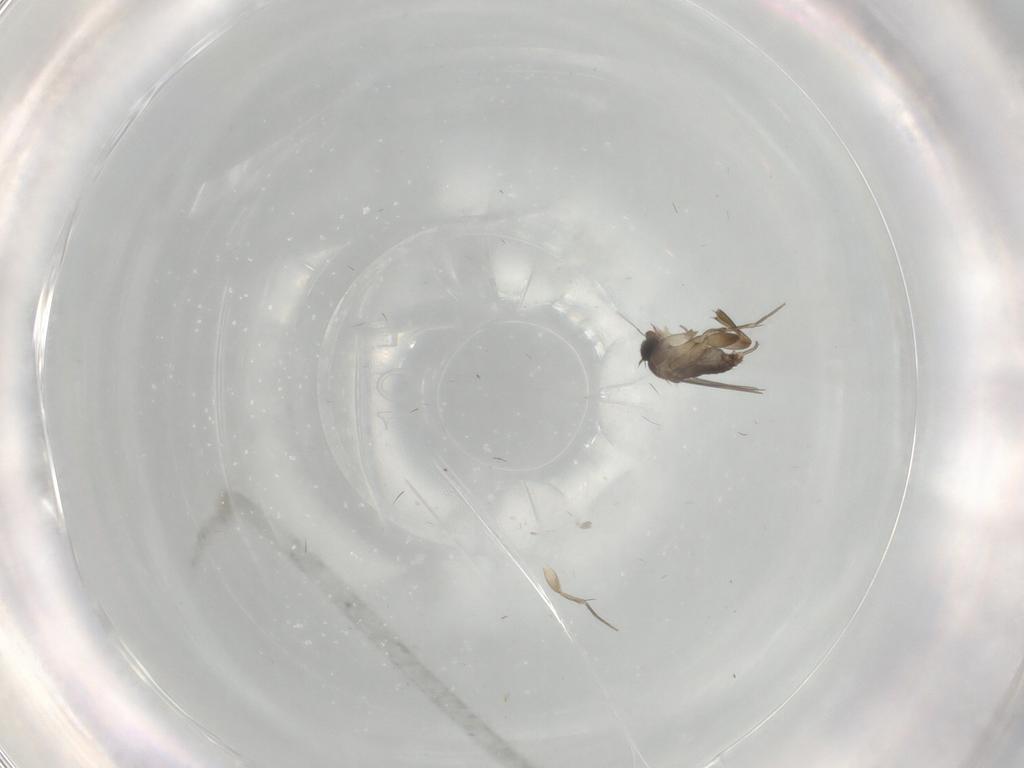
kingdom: Animalia
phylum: Arthropoda
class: Insecta
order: Diptera
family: Phoridae
